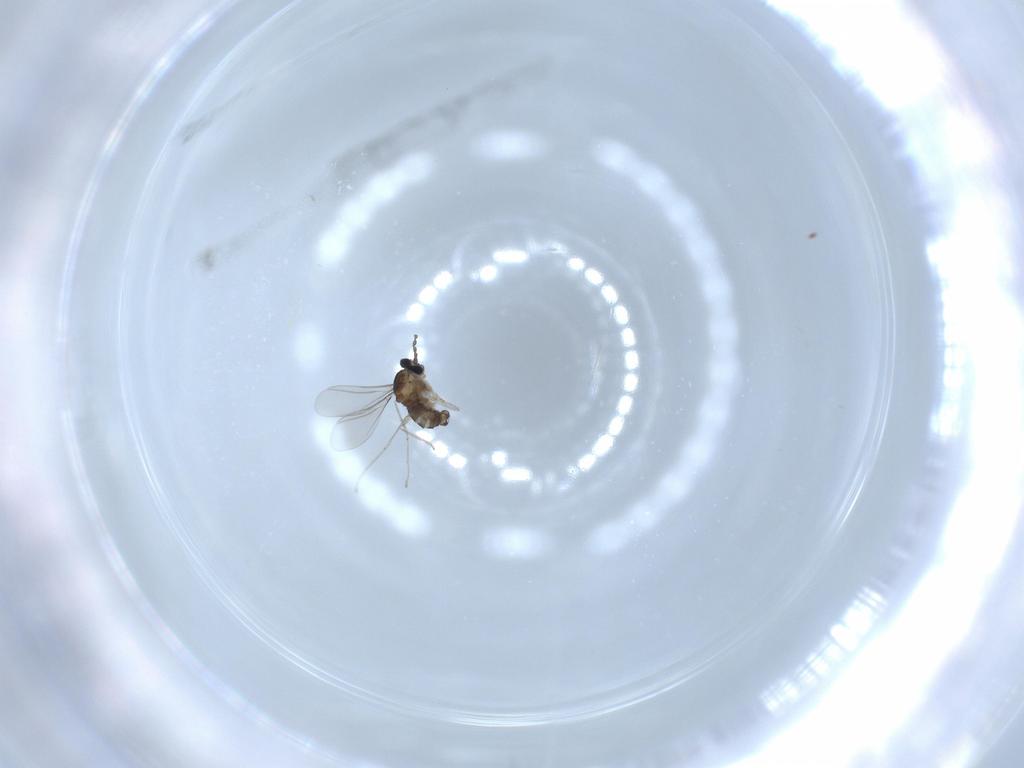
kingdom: Animalia
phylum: Arthropoda
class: Insecta
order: Diptera
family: Cecidomyiidae
